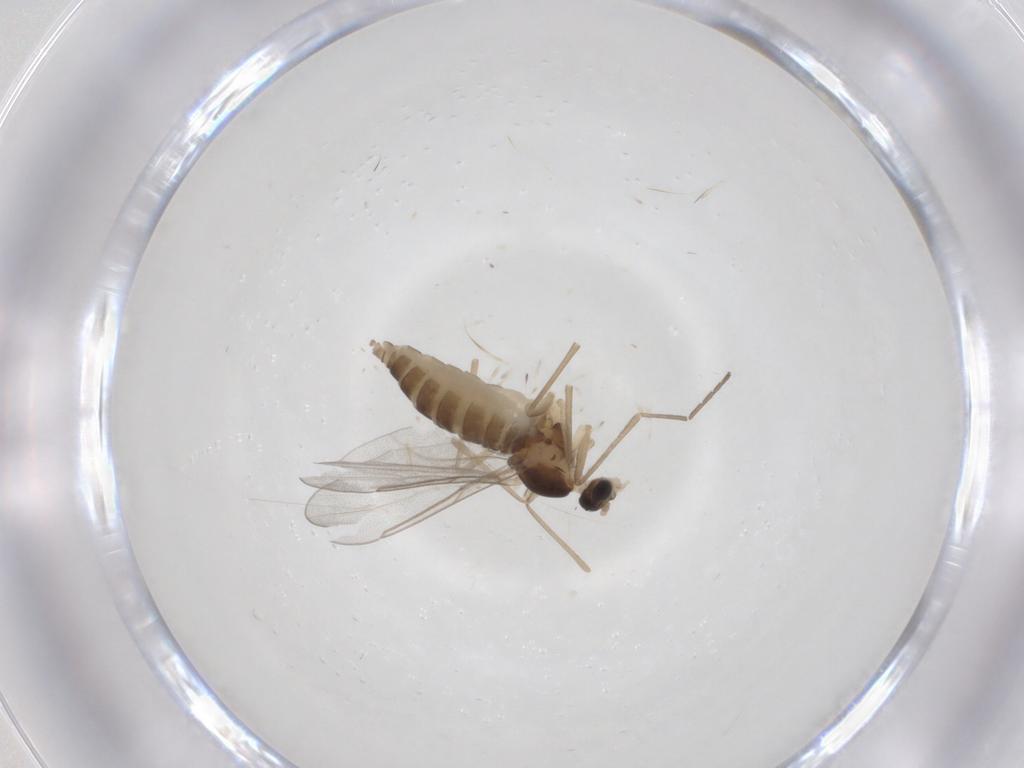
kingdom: Animalia
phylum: Arthropoda
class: Insecta
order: Diptera
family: Cecidomyiidae
